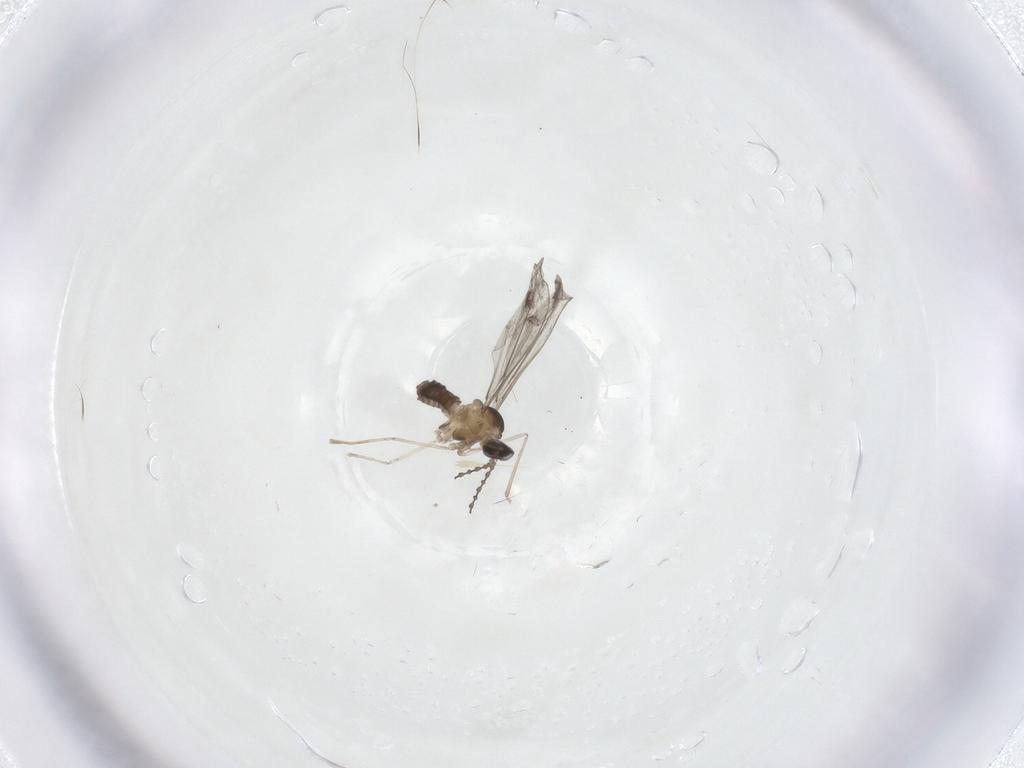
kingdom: Animalia
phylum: Arthropoda
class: Insecta
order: Diptera
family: Cecidomyiidae
